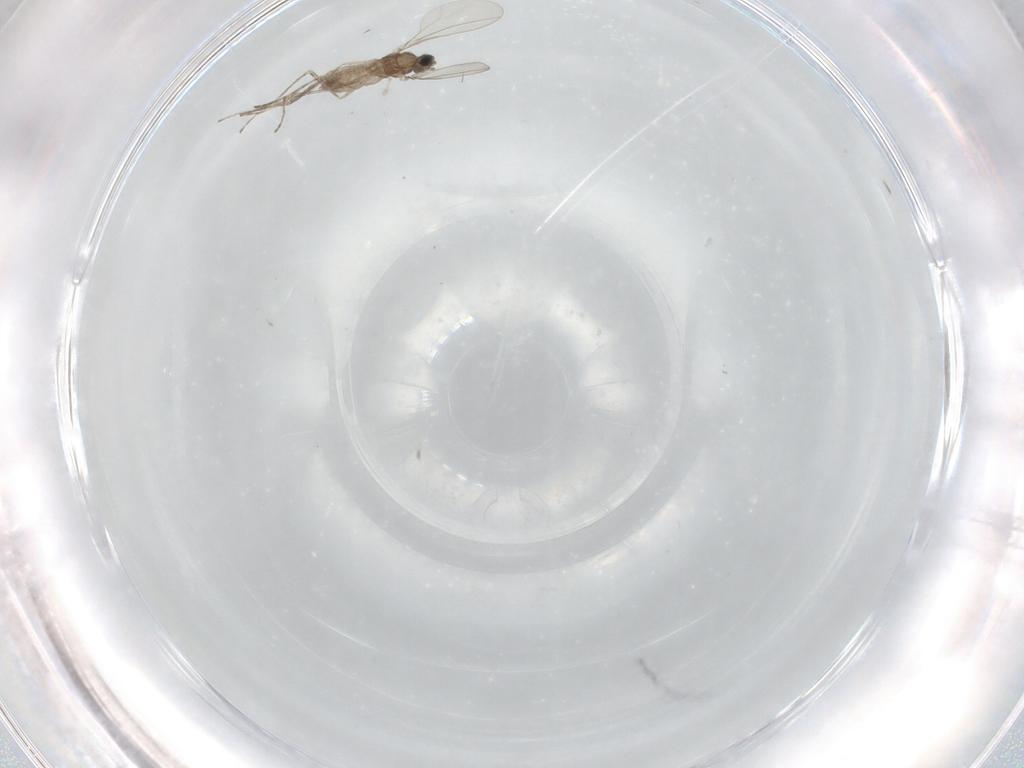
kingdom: Animalia
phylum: Arthropoda
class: Insecta
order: Diptera
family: Cecidomyiidae
